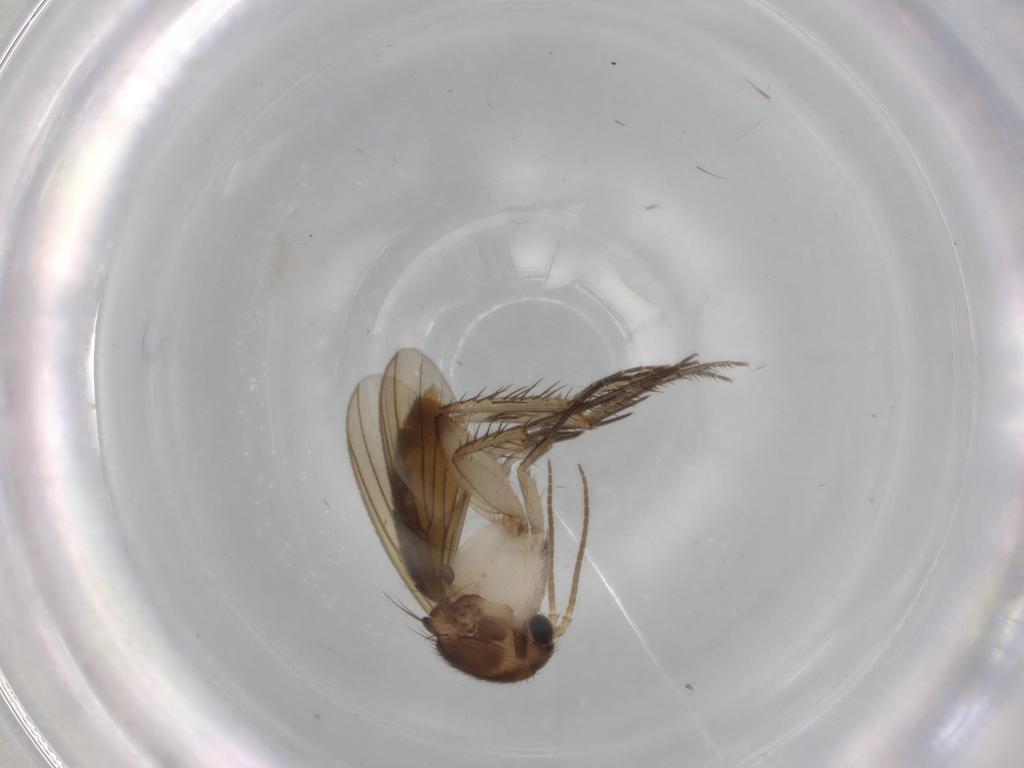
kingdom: Animalia
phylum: Arthropoda
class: Insecta
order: Diptera
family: Mycetophilidae
